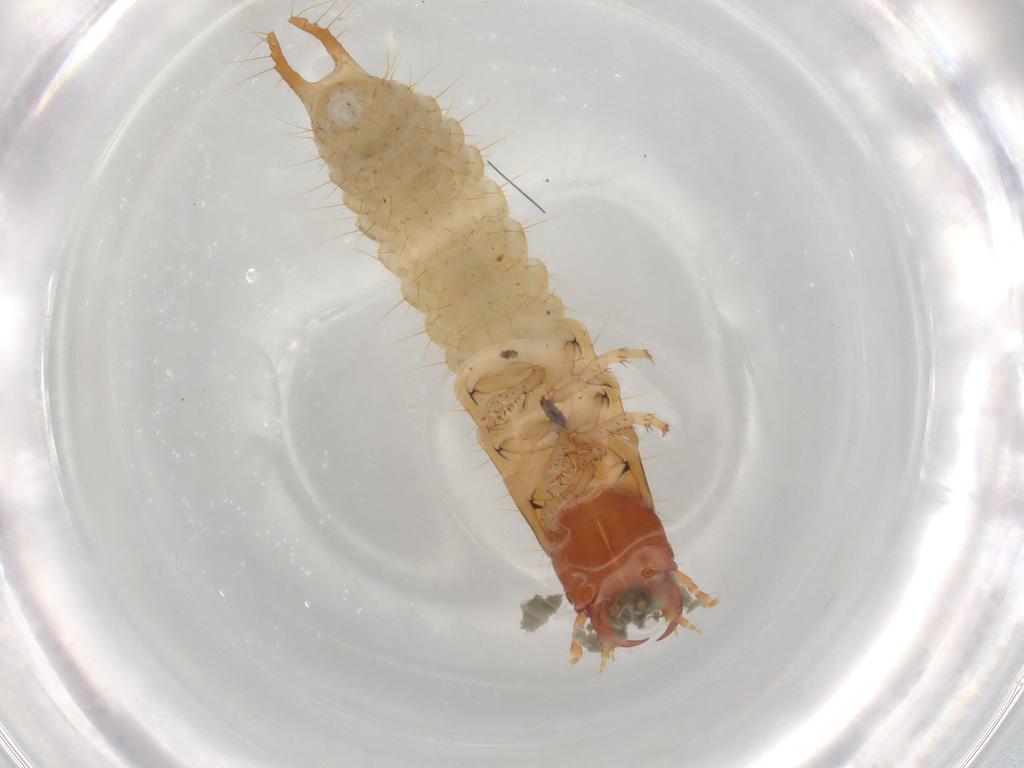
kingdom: Animalia
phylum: Arthropoda
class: Insecta
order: Coleoptera
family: Carabidae
